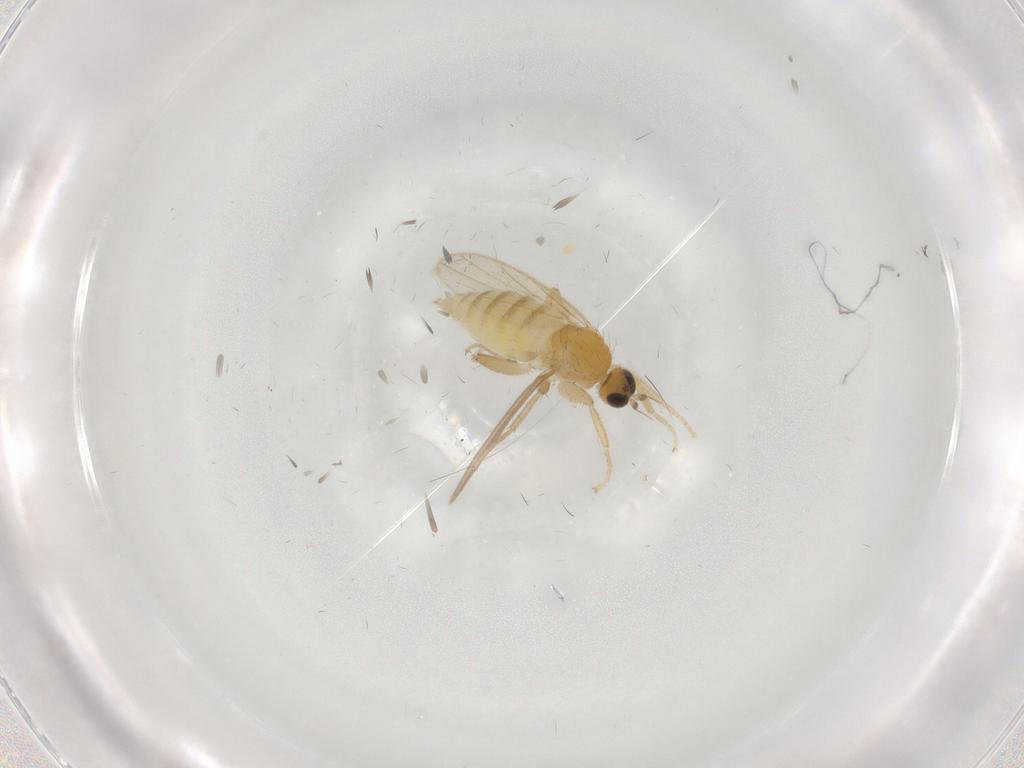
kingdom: Animalia
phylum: Arthropoda
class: Insecta
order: Diptera
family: Hybotidae
